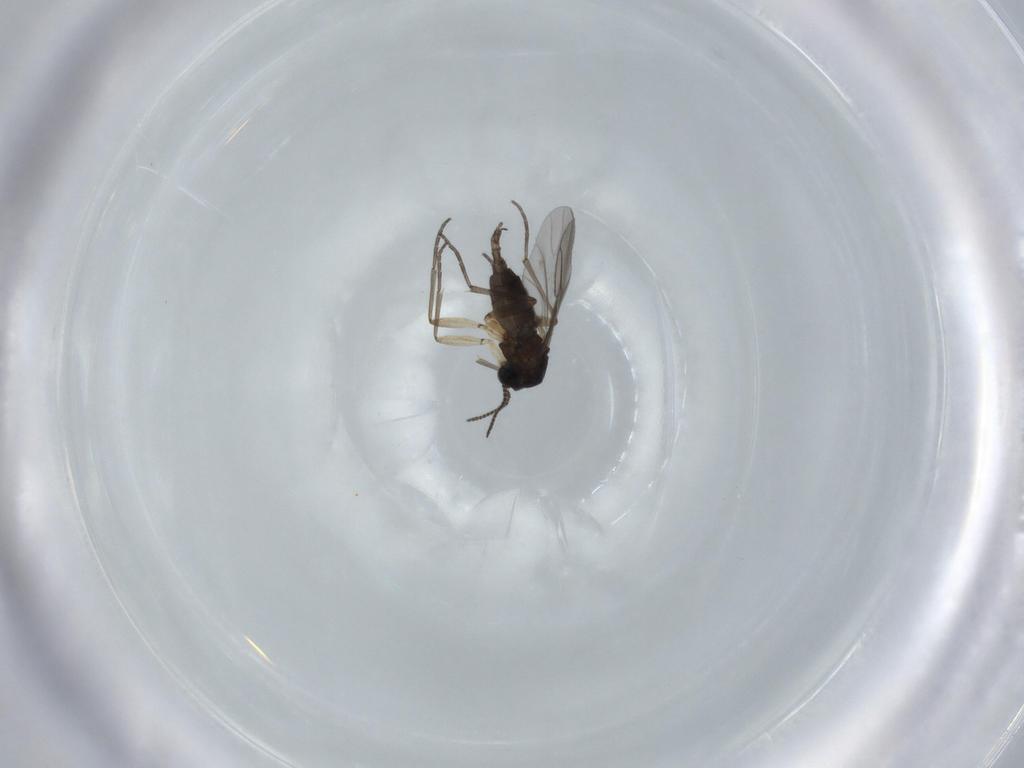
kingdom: Animalia
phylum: Arthropoda
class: Insecta
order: Diptera
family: Sciaridae
